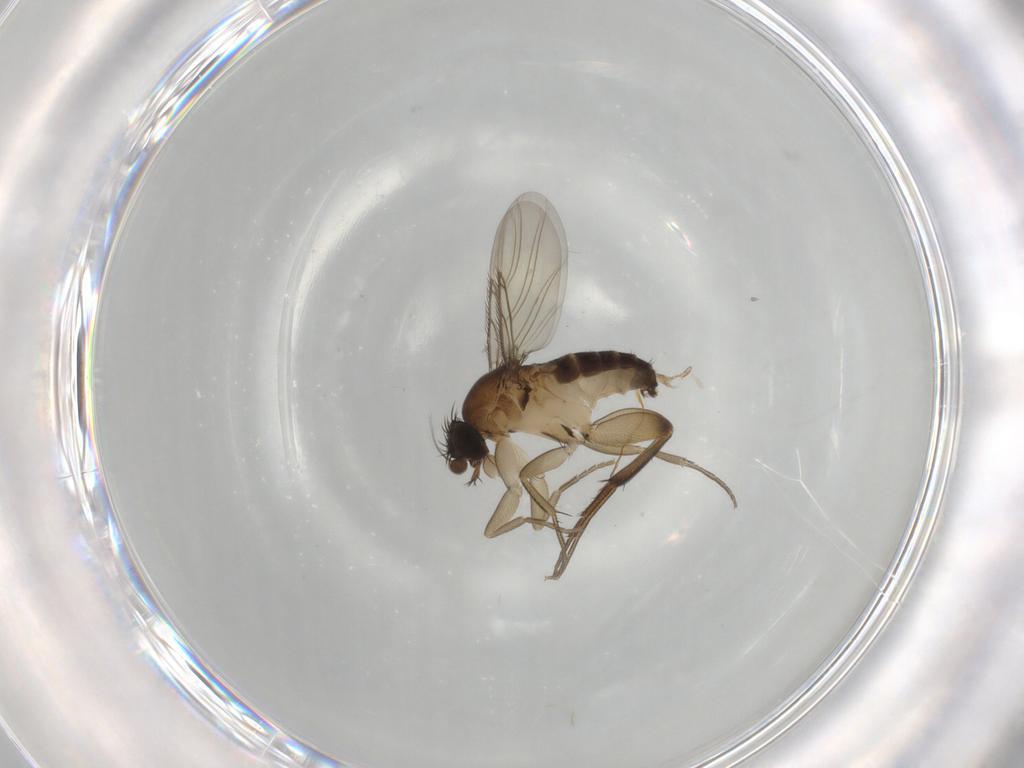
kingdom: Animalia
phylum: Arthropoda
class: Insecta
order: Diptera
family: Phoridae
